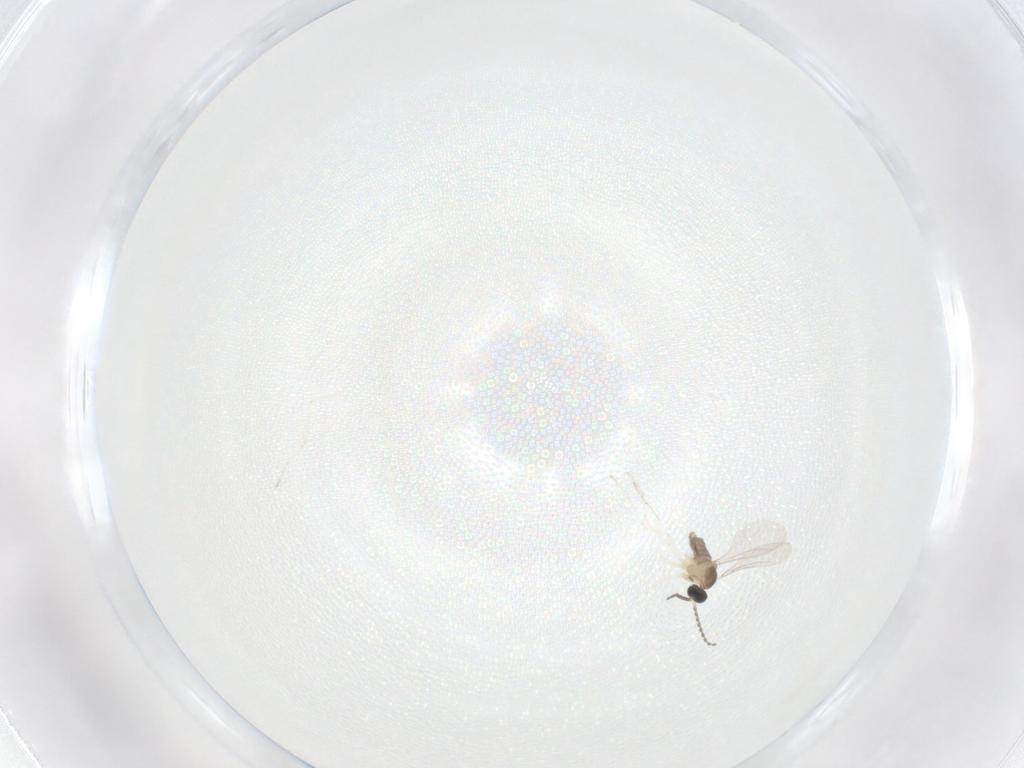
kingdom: Animalia
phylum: Arthropoda
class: Insecta
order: Diptera
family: Cecidomyiidae
